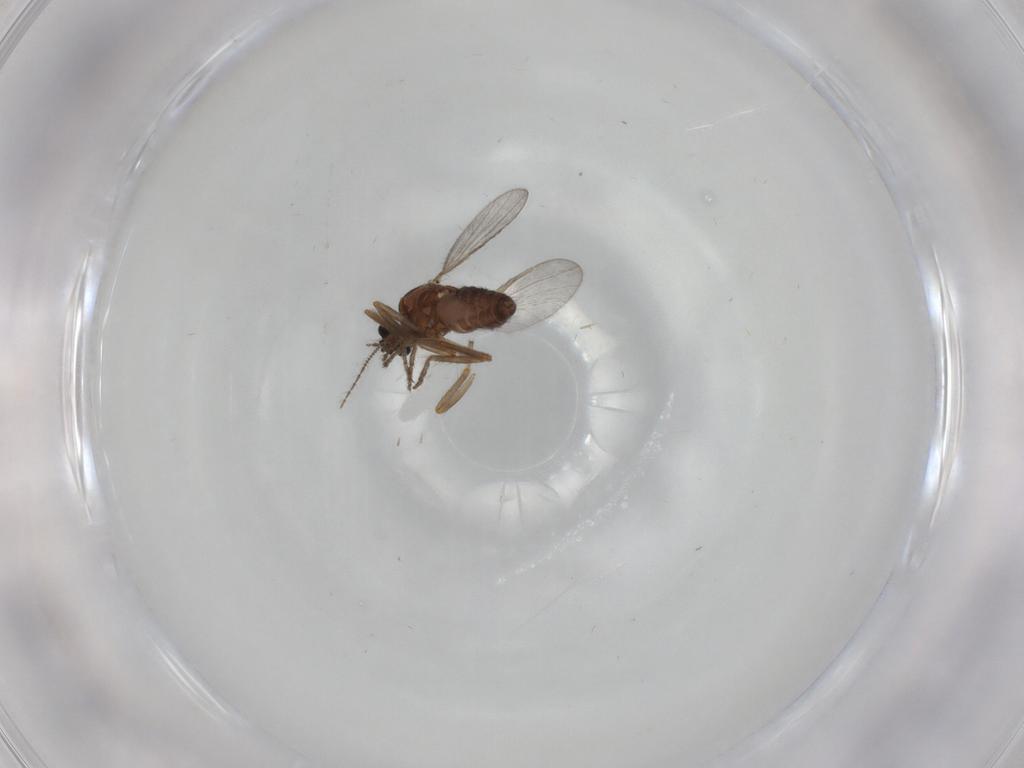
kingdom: Animalia
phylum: Arthropoda
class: Insecta
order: Diptera
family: Ceratopogonidae
